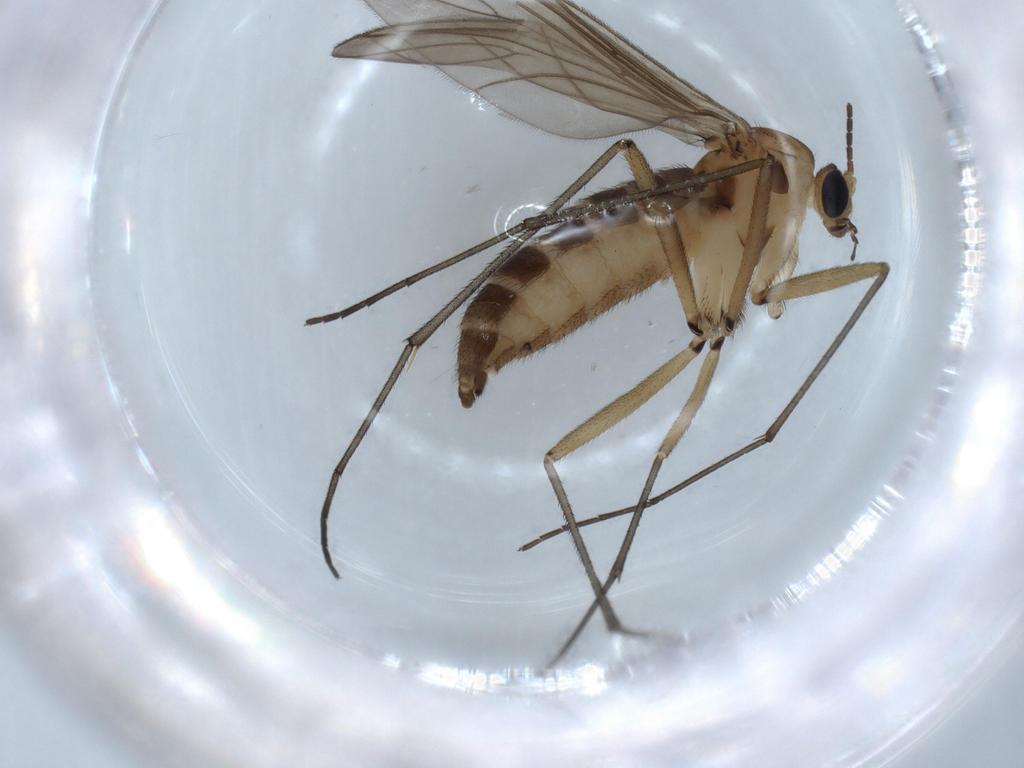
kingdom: Animalia
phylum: Arthropoda
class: Insecta
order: Diptera
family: Sciaridae
